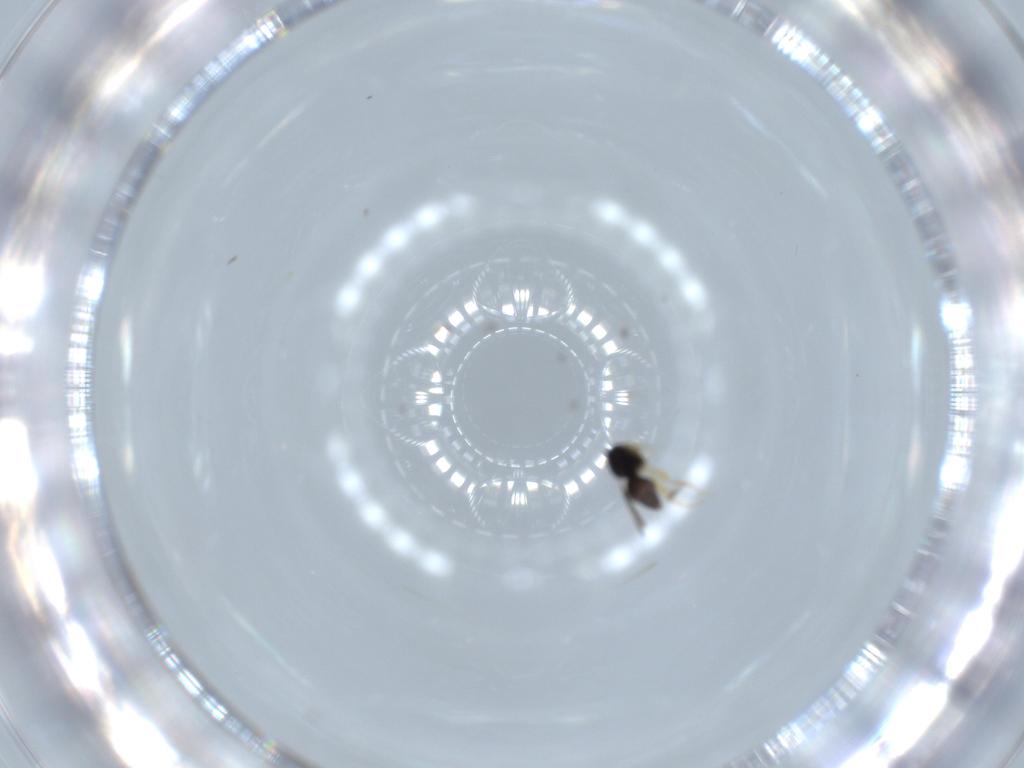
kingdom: Animalia
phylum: Arthropoda
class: Insecta
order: Hymenoptera
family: Ceraphronidae
